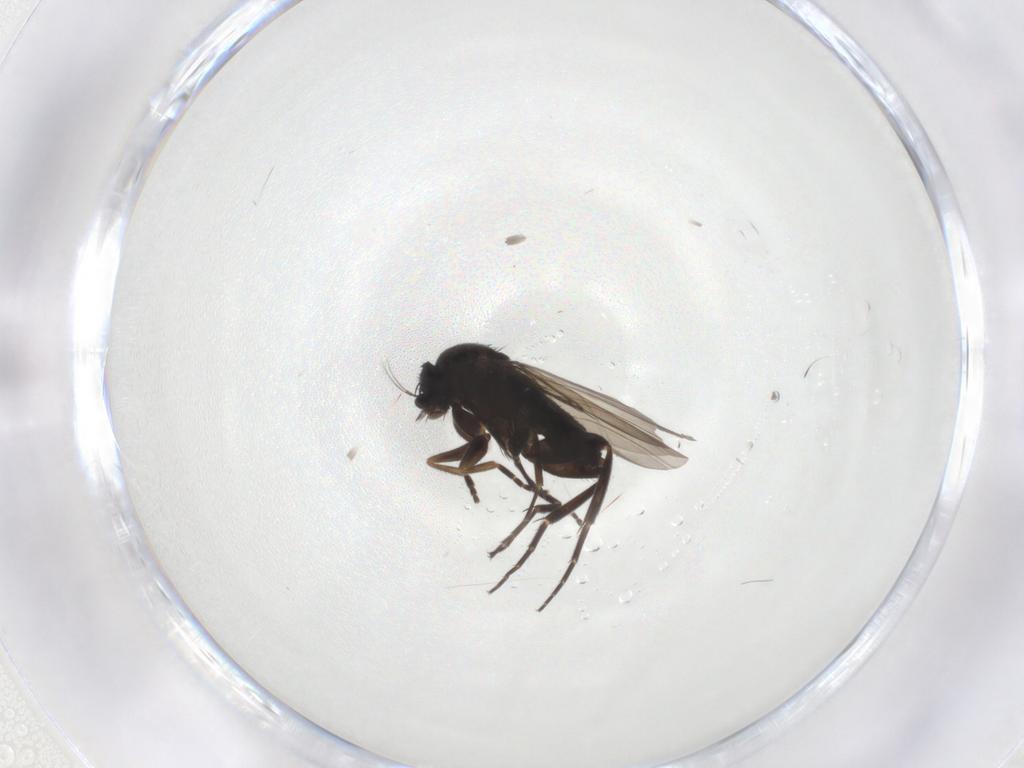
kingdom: Animalia
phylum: Arthropoda
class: Insecta
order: Diptera
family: Phoridae
